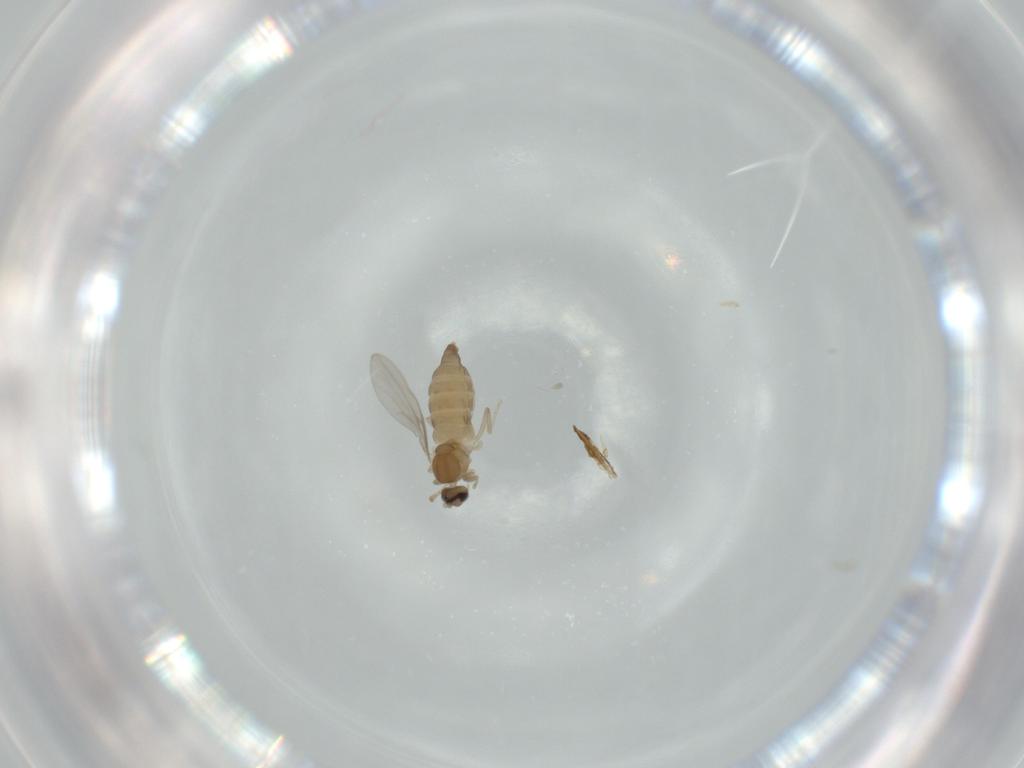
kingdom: Animalia
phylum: Arthropoda
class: Insecta
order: Diptera
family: Cecidomyiidae
